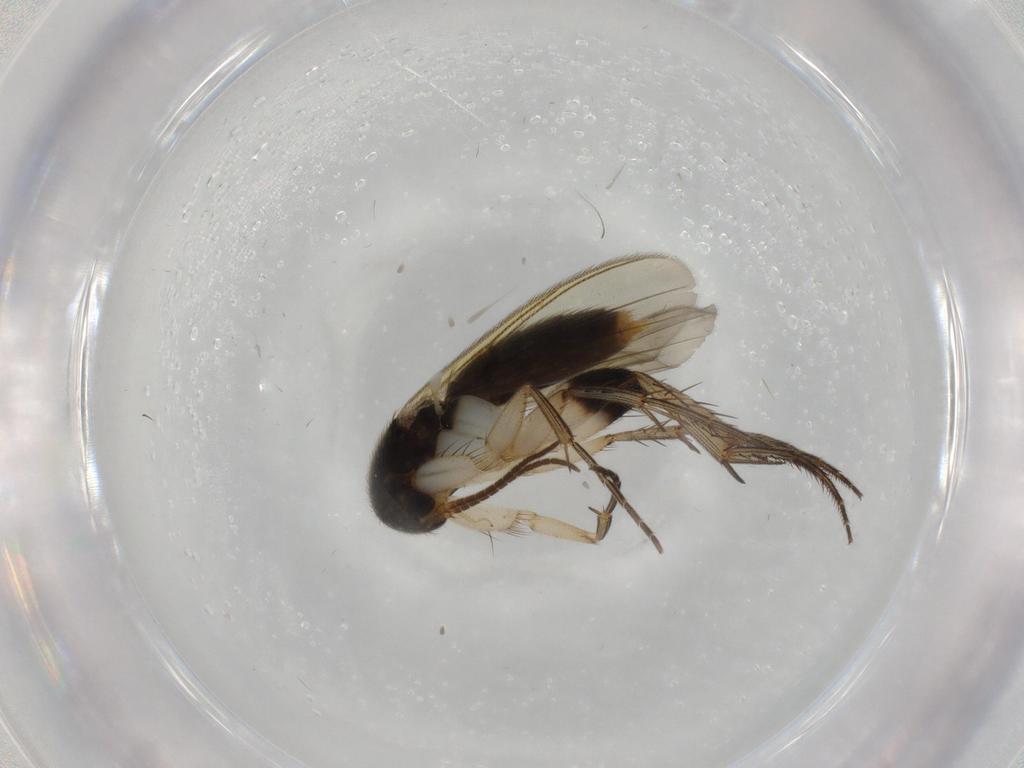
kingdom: Animalia
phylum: Arthropoda
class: Insecta
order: Diptera
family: Mycetophilidae
